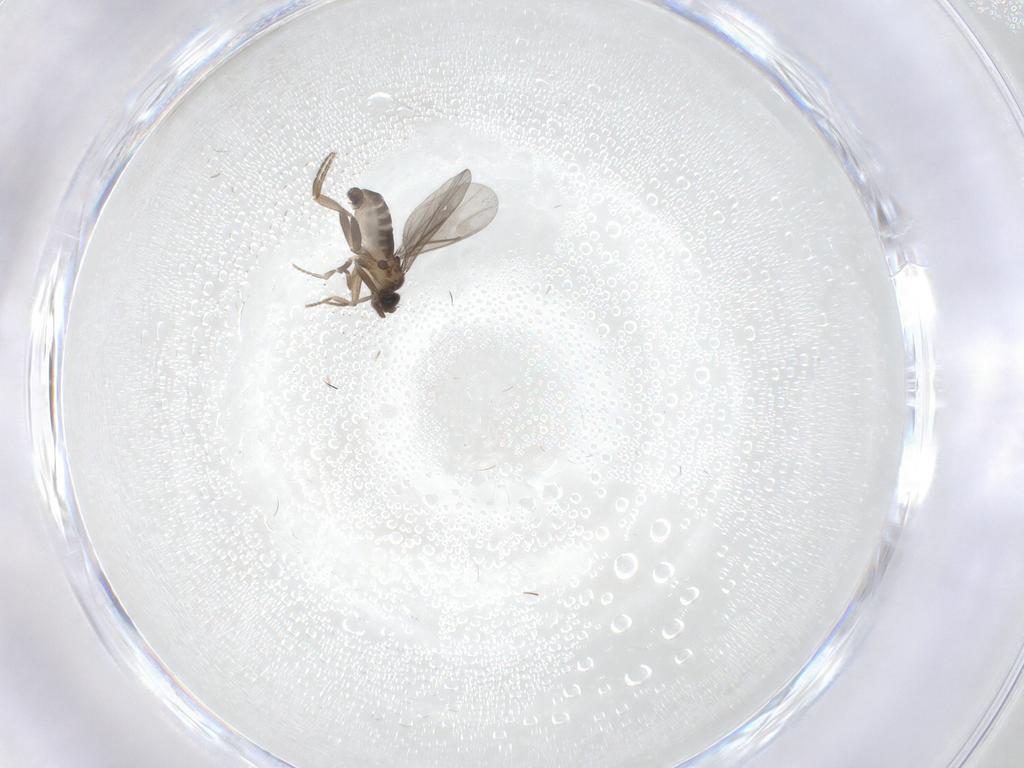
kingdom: Animalia
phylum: Arthropoda
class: Insecta
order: Diptera
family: Phoridae
